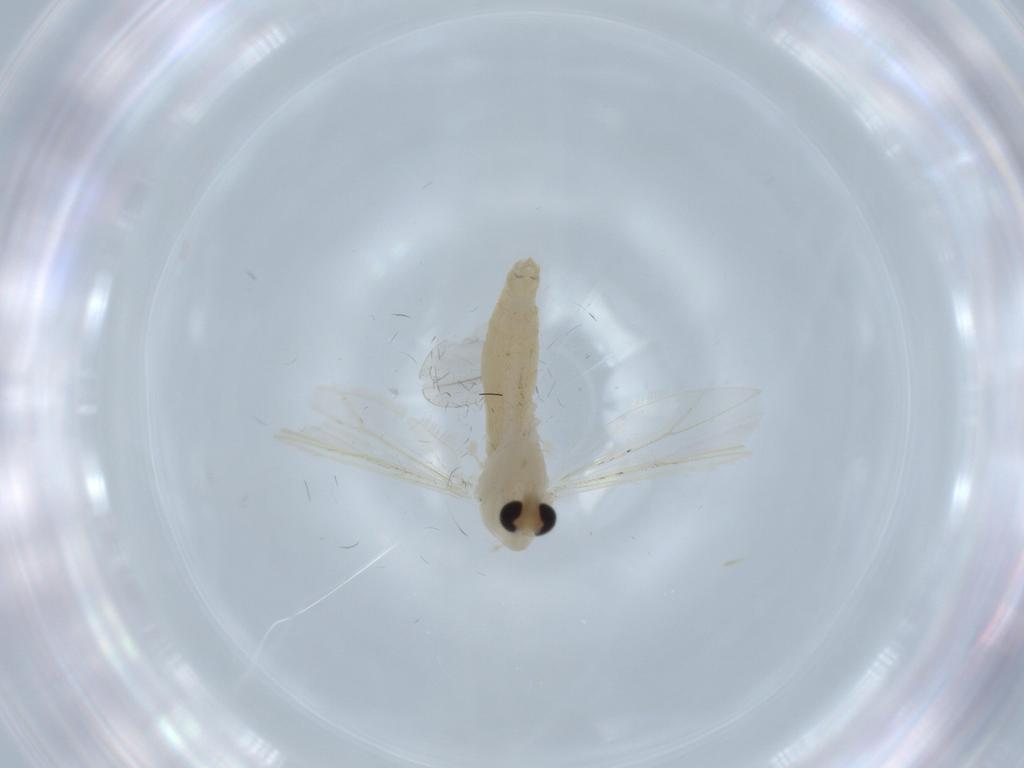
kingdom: Animalia
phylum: Arthropoda
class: Insecta
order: Diptera
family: Chironomidae
